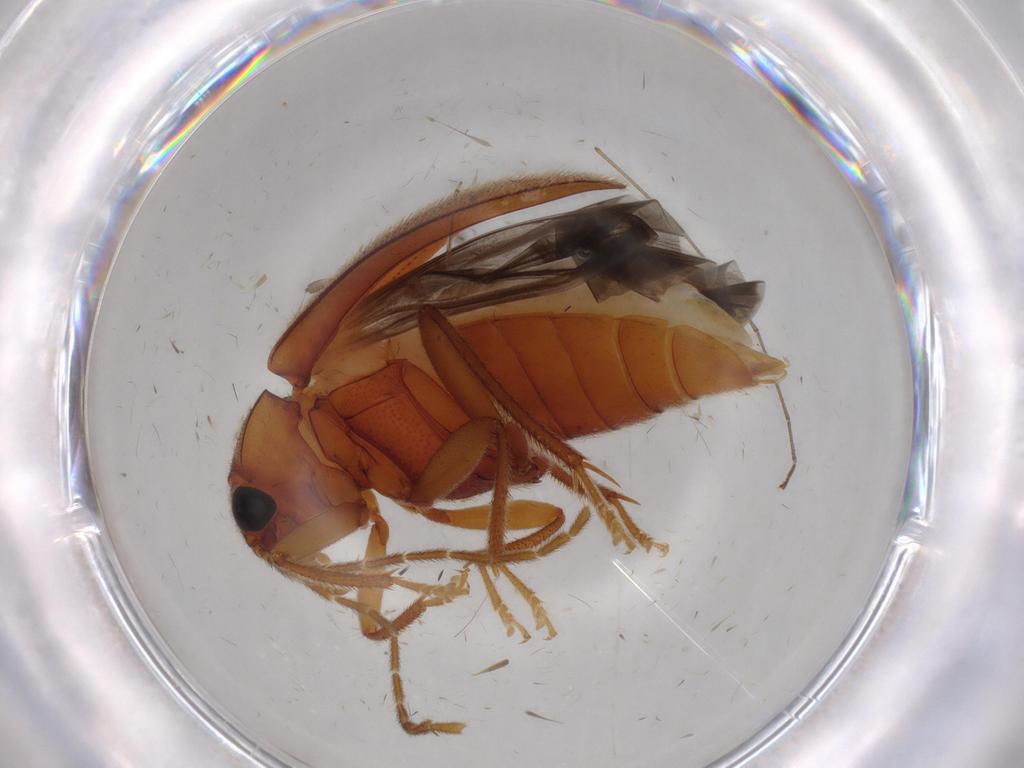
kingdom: Animalia
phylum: Arthropoda
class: Insecta
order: Coleoptera
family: Ptilodactylidae
